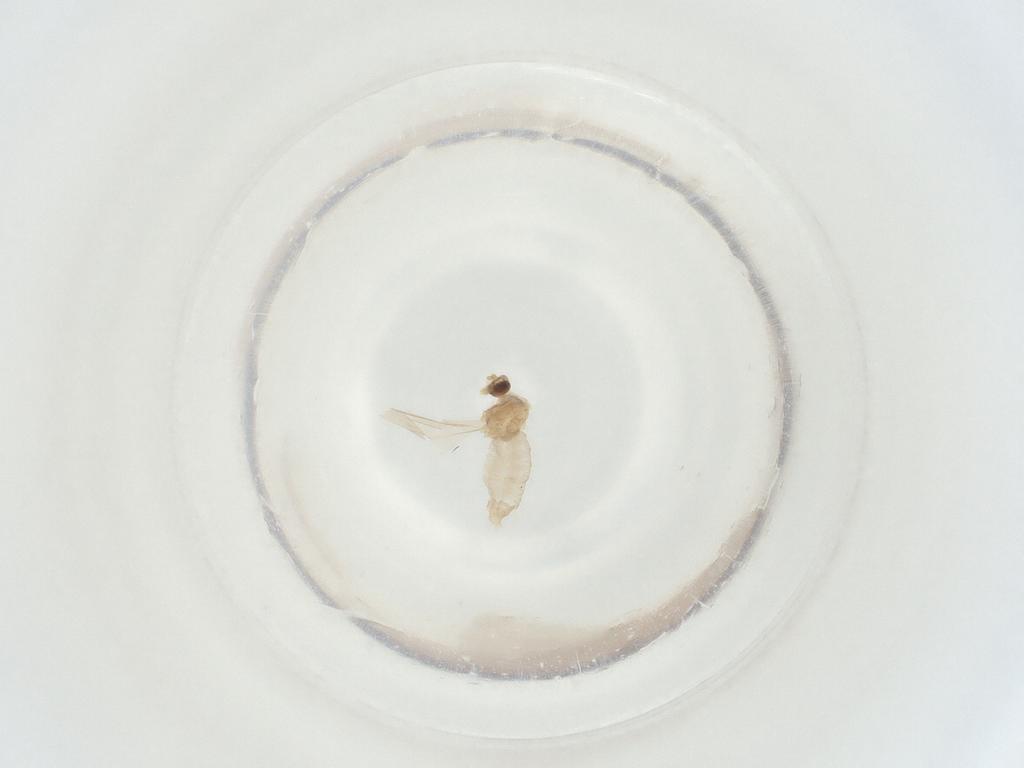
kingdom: Animalia
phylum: Arthropoda
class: Insecta
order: Diptera
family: Cecidomyiidae
